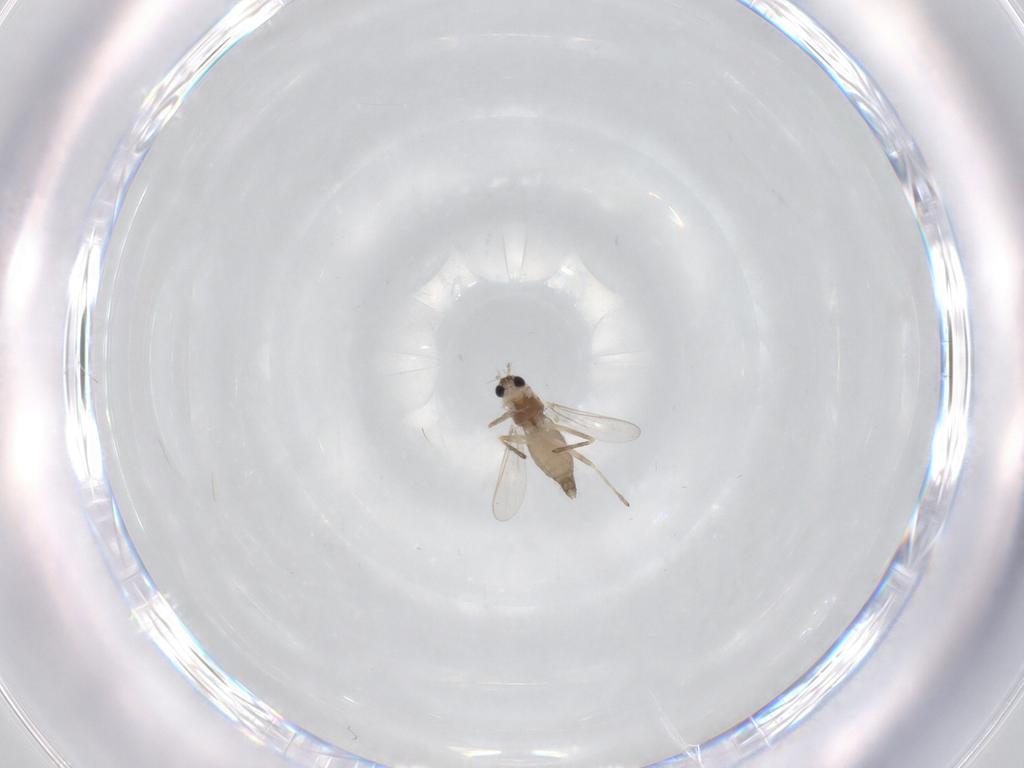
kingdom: Animalia
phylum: Arthropoda
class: Insecta
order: Diptera
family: Chironomidae
